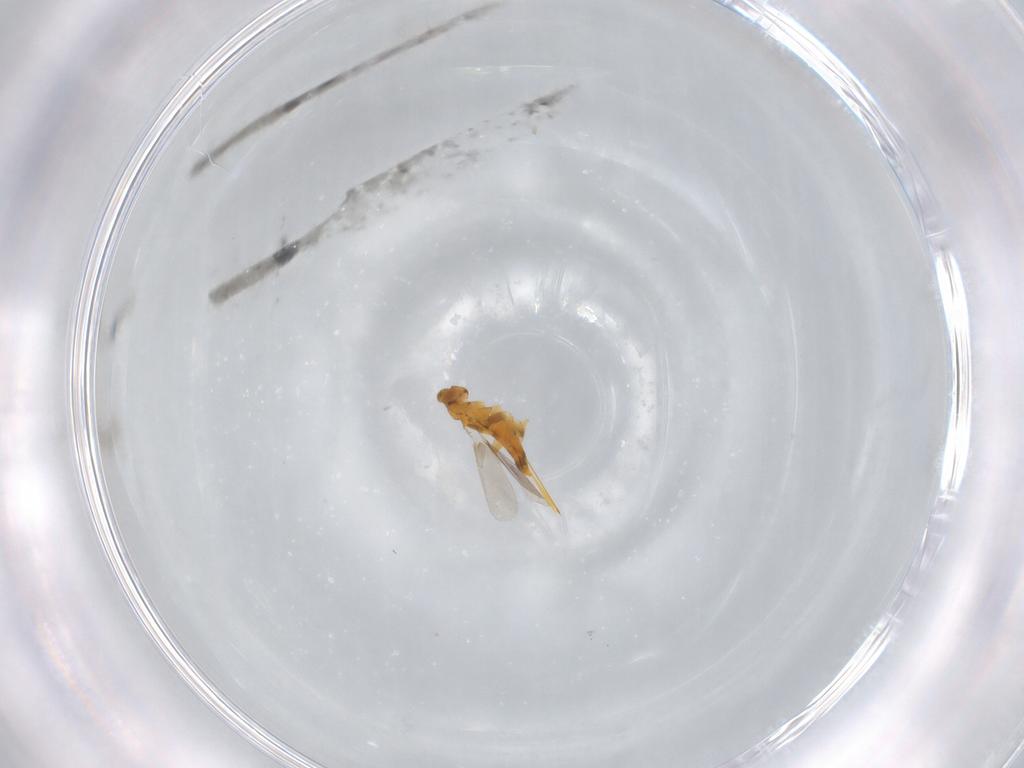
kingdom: Animalia
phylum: Arthropoda
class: Insecta
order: Hymenoptera
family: Aphelinidae
